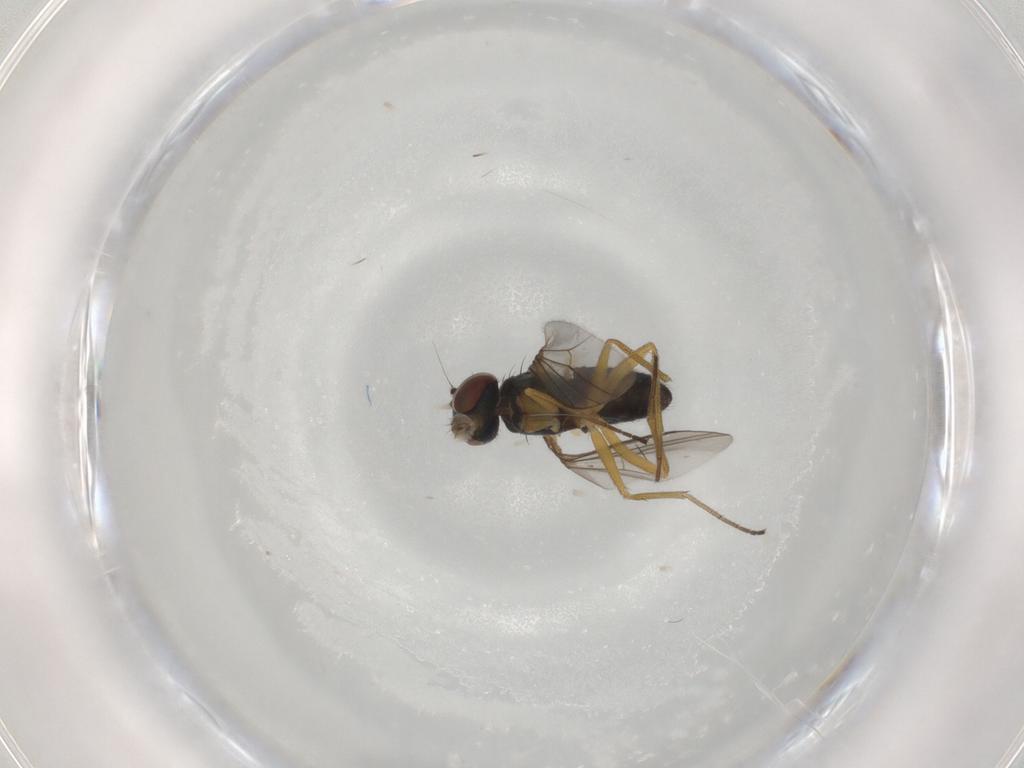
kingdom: Animalia
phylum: Arthropoda
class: Insecta
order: Diptera
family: Dolichopodidae
